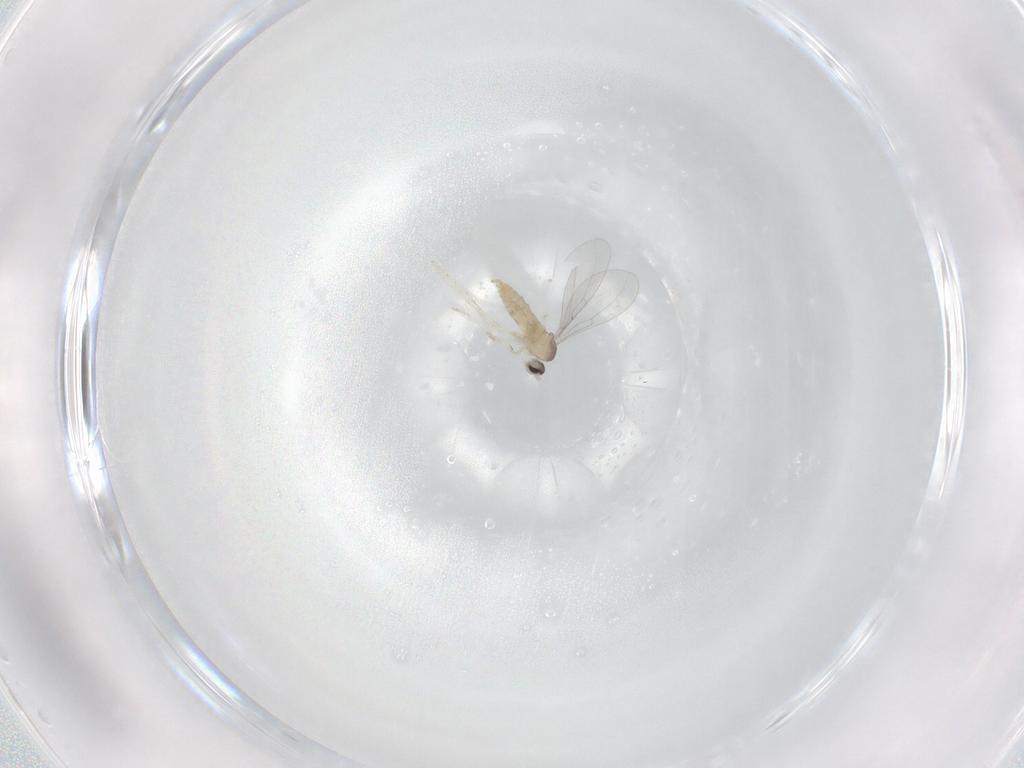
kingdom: Animalia
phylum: Arthropoda
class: Insecta
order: Diptera
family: Cecidomyiidae
